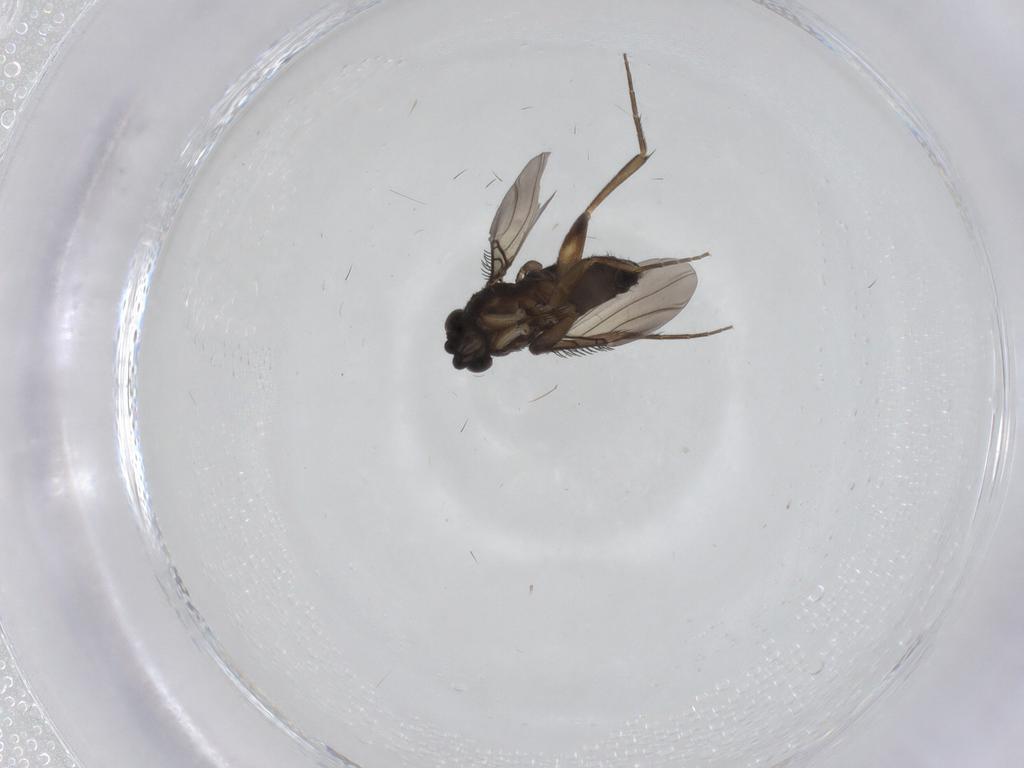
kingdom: Animalia
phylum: Arthropoda
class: Insecta
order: Diptera
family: Phoridae
